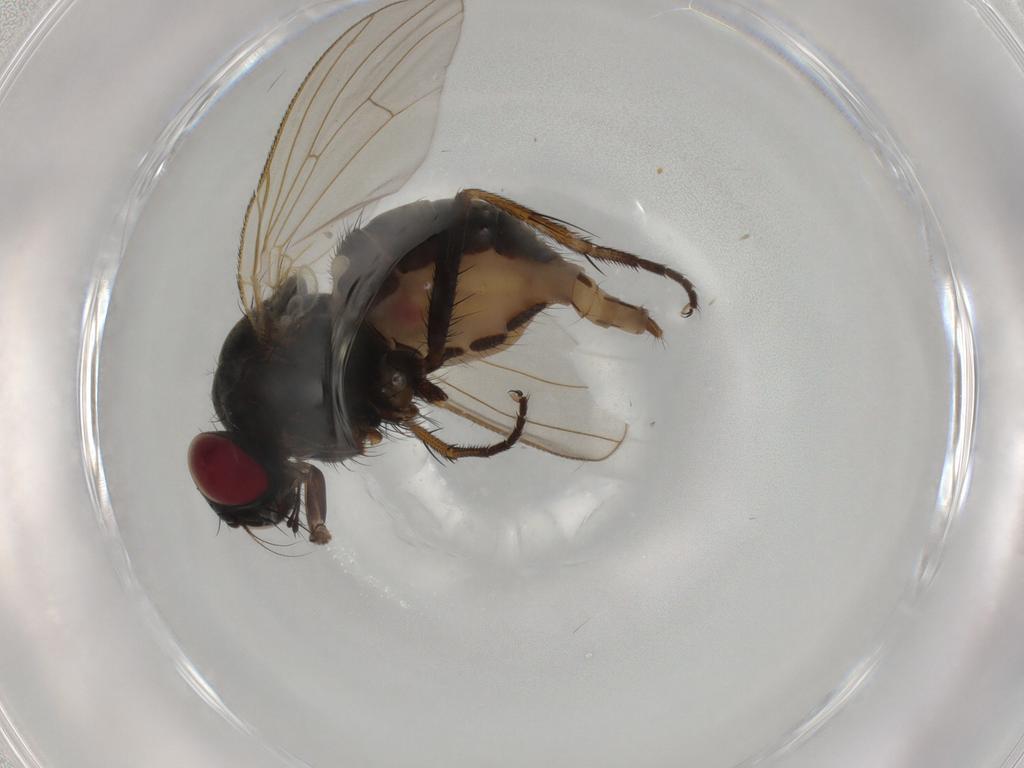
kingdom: Animalia
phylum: Arthropoda
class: Insecta
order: Diptera
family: Muscidae
